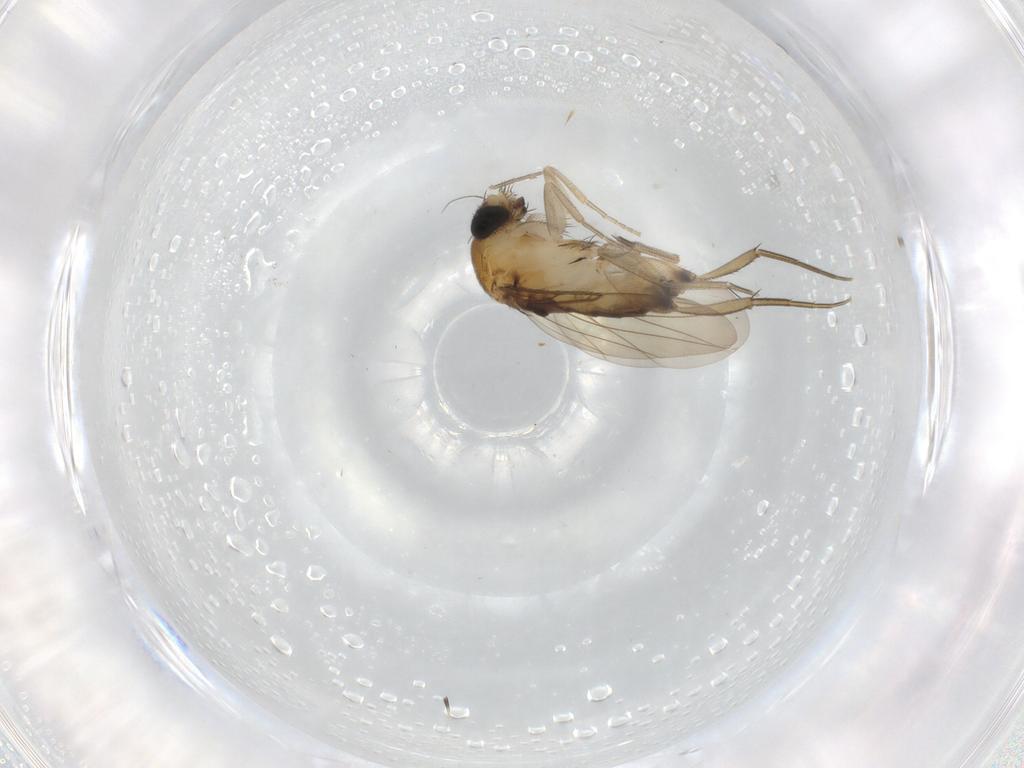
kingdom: Animalia
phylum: Arthropoda
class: Insecta
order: Diptera
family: Phoridae
